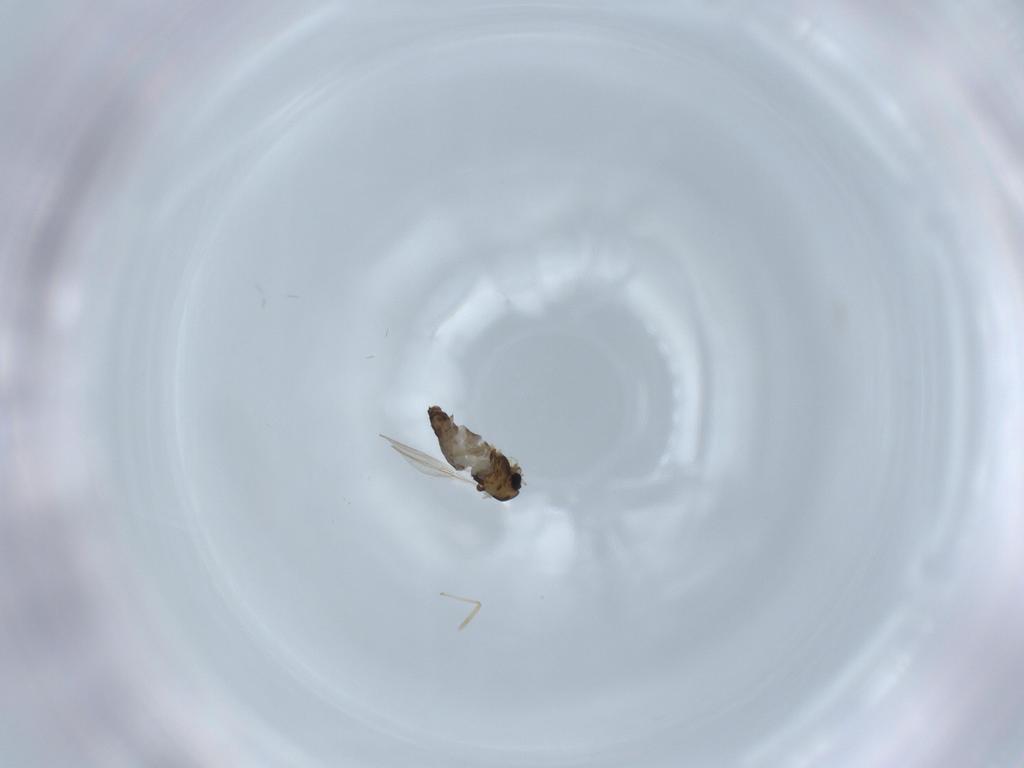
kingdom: Animalia
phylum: Arthropoda
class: Insecta
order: Diptera
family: Chironomidae
